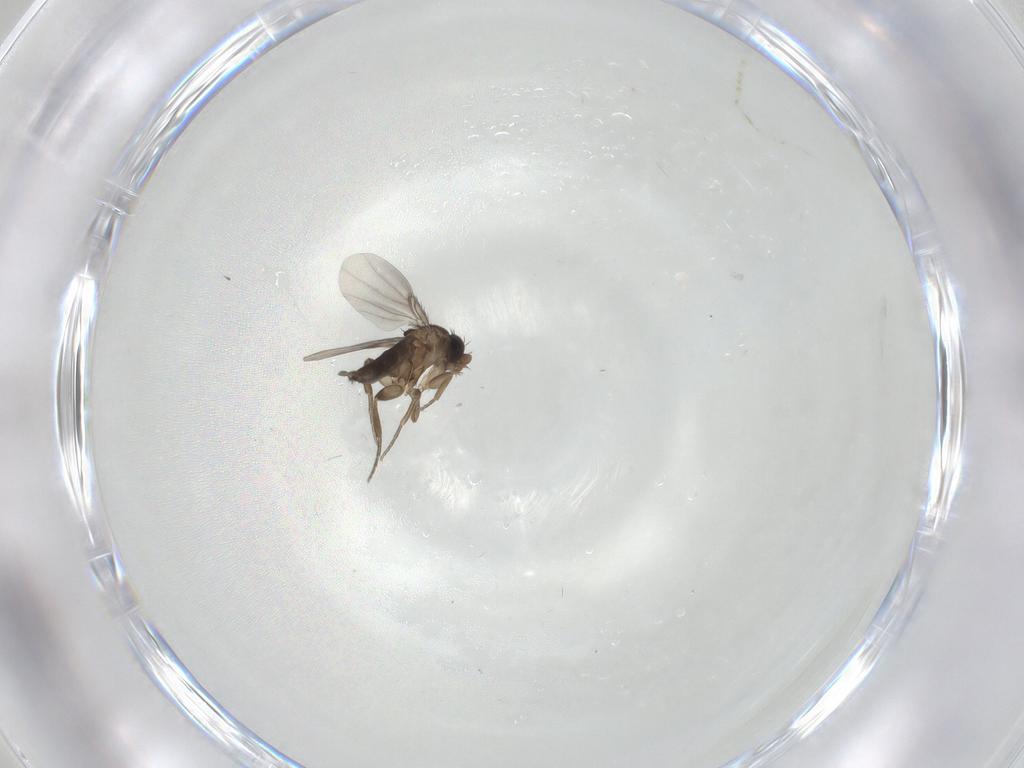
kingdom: Animalia
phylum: Arthropoda
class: Insecta
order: Diptera
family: Phoridae
